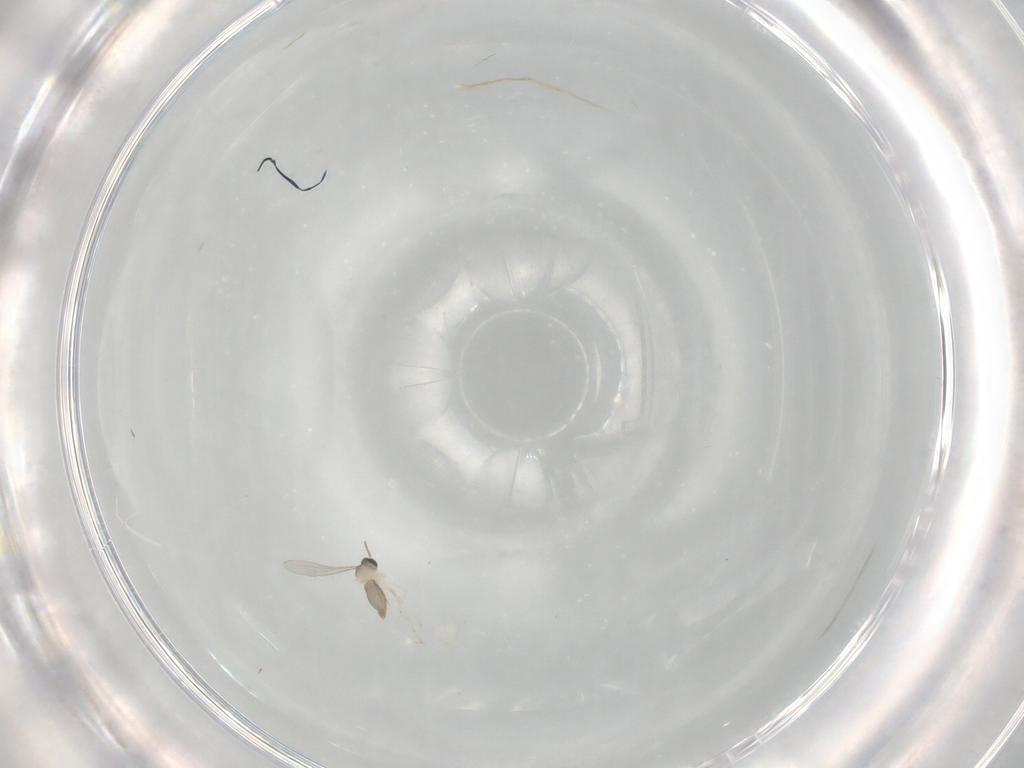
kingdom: Animalia
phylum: Arthropoda
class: Insecta
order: Diptera
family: Cecidomyiidae
